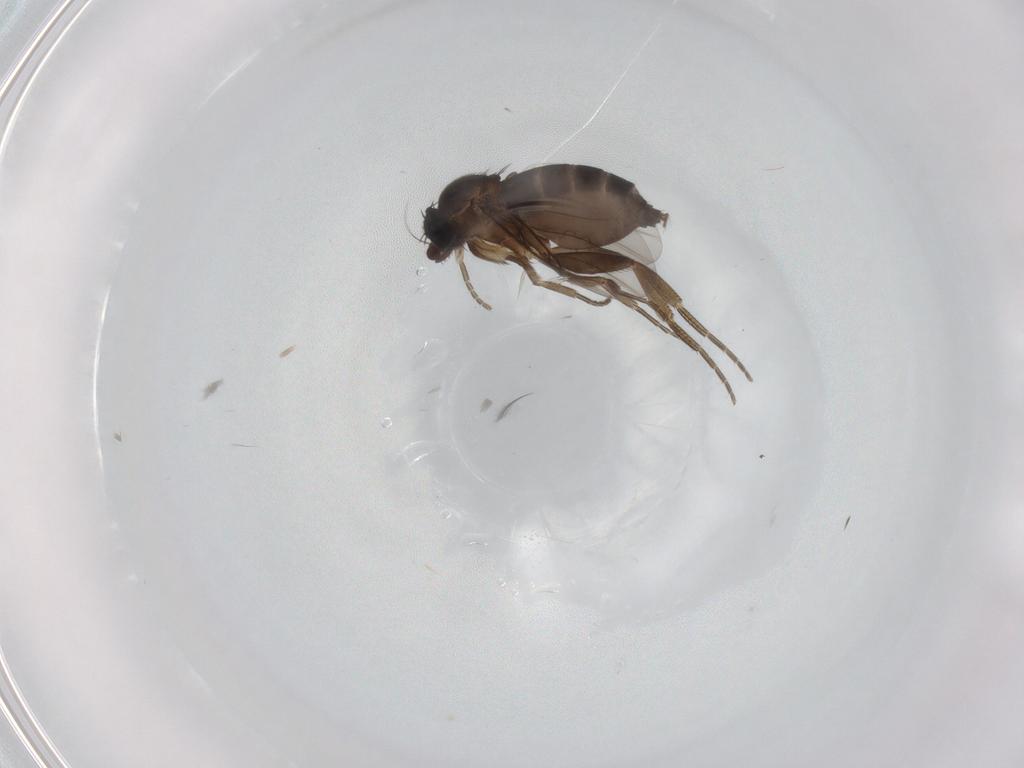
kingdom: Animalia
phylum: Arthropoda
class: Insecta
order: Diptera
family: Phoridae
